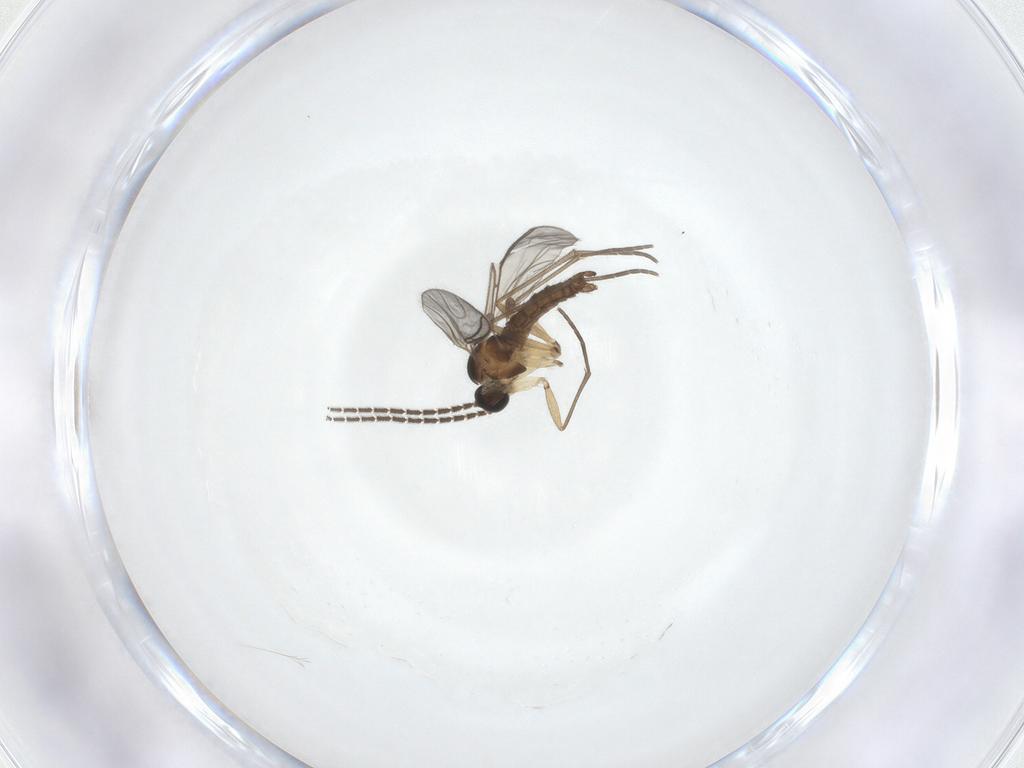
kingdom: Animalia
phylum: Arthropoda
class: Insecta
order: Diptera
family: Sciaridae
